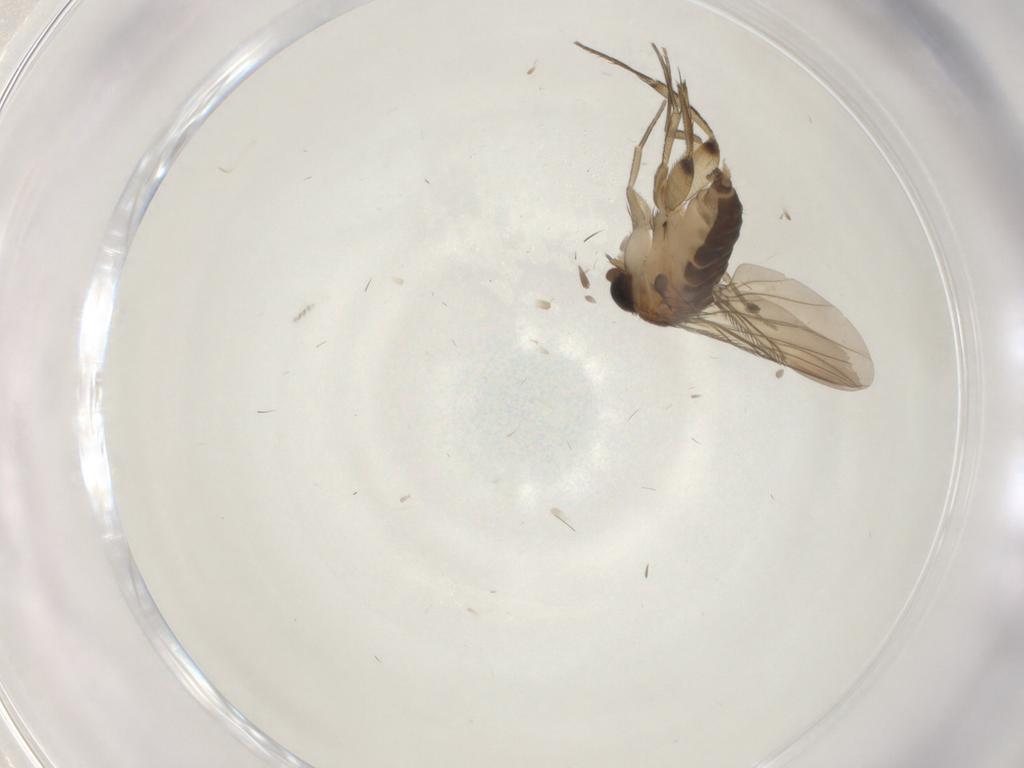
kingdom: Animalia
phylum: Arthropoda
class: Insecta
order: Diptera
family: Phoridae
